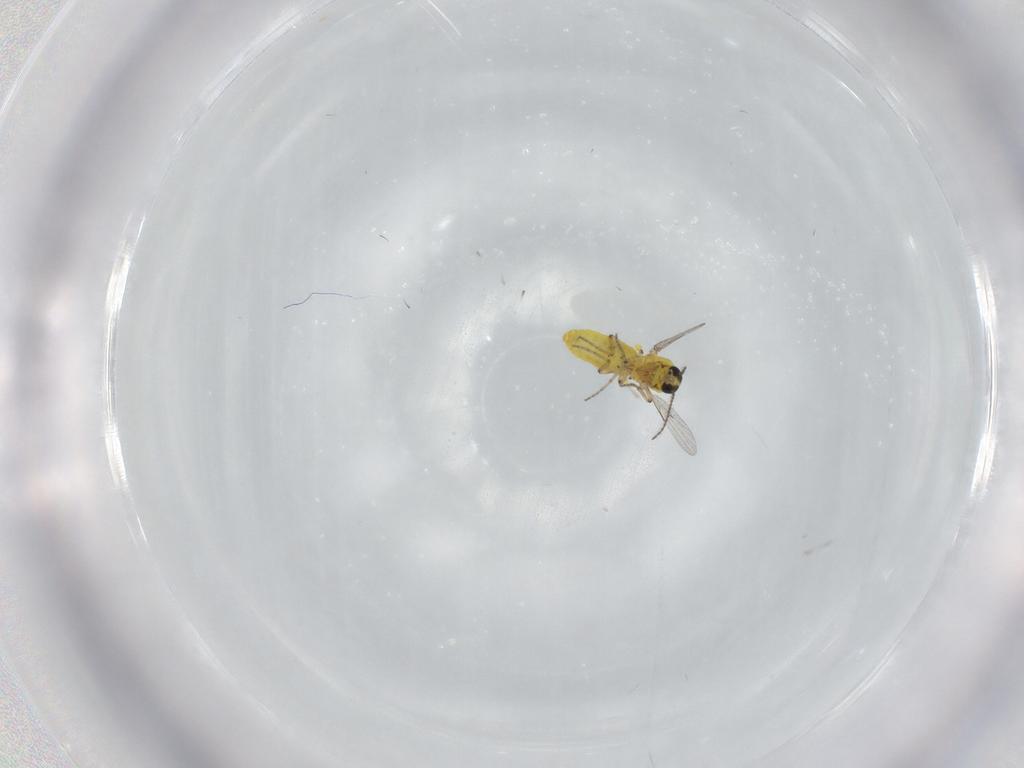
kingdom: Animalia
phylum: Arthropoda
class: Insecta
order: Diptera
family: Ceratopogonidae
